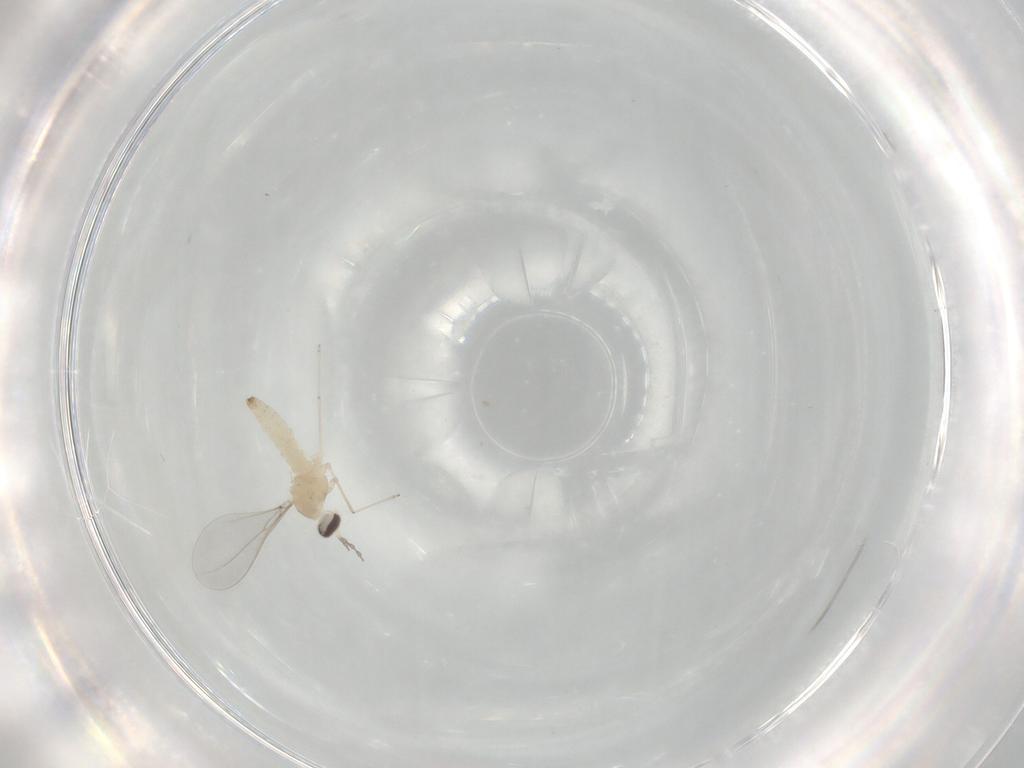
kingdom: Animalia
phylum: Arthropoda
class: Insecta
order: Diptera
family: Cecidomyiidae
